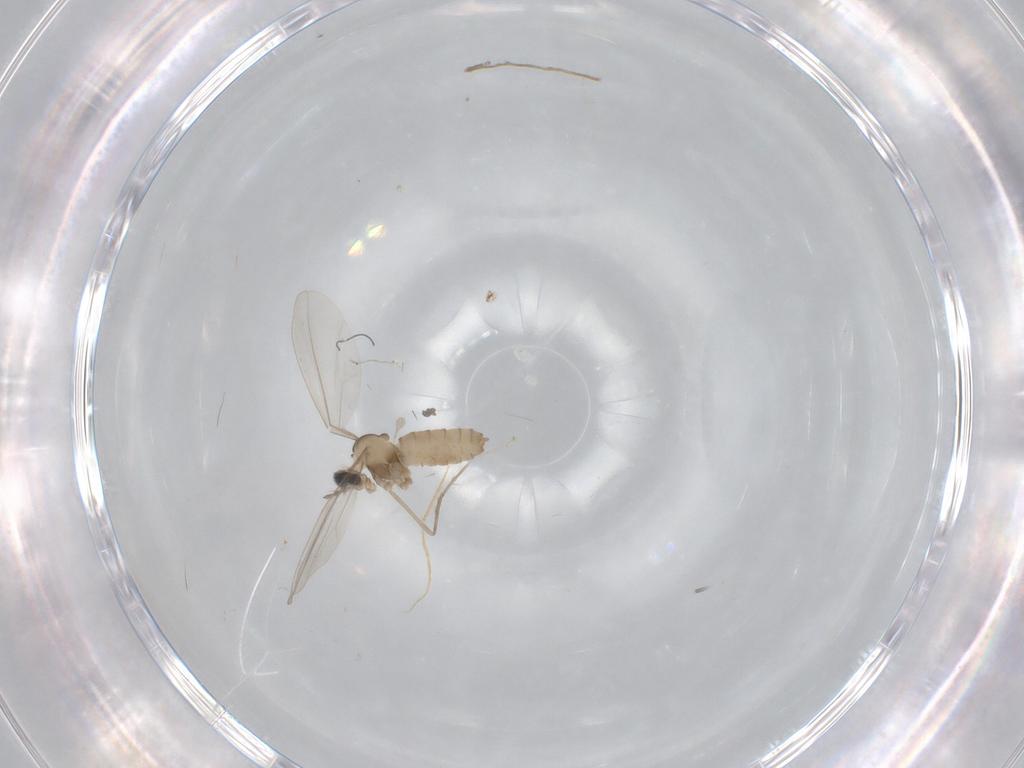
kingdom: Animalia
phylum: Arthropoda
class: Insecta
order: Diptera
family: Cecidomyiidae
